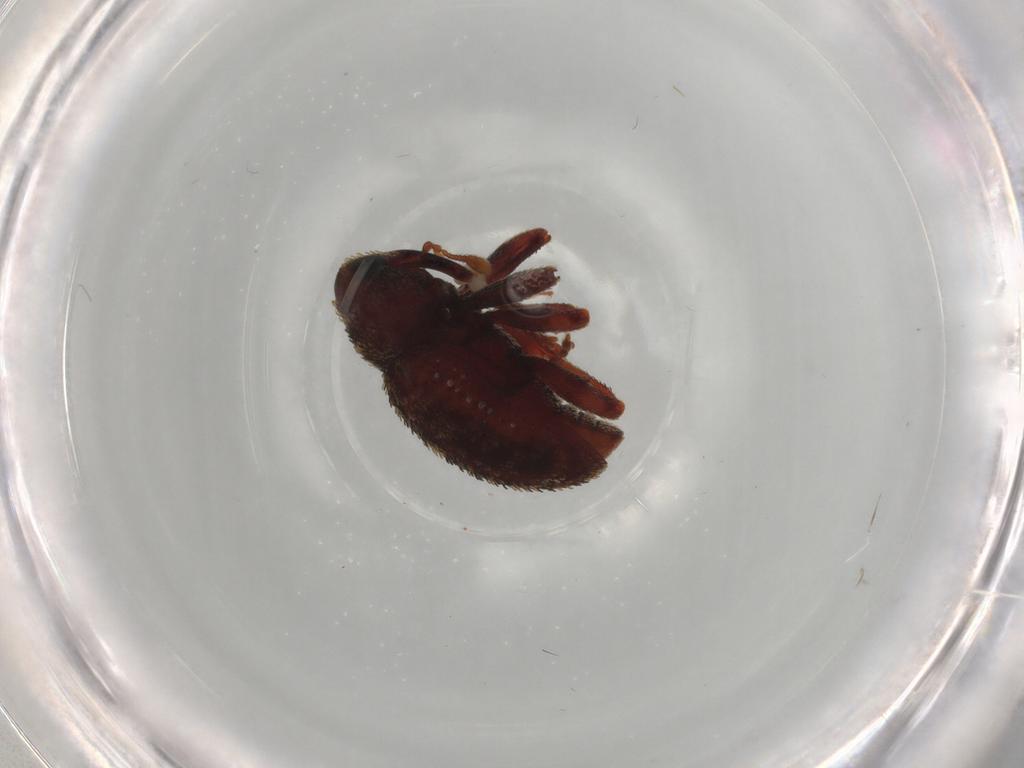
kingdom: Animalia
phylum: Arthropoda
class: Insecta
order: Coleoptera
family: Curculionidae
